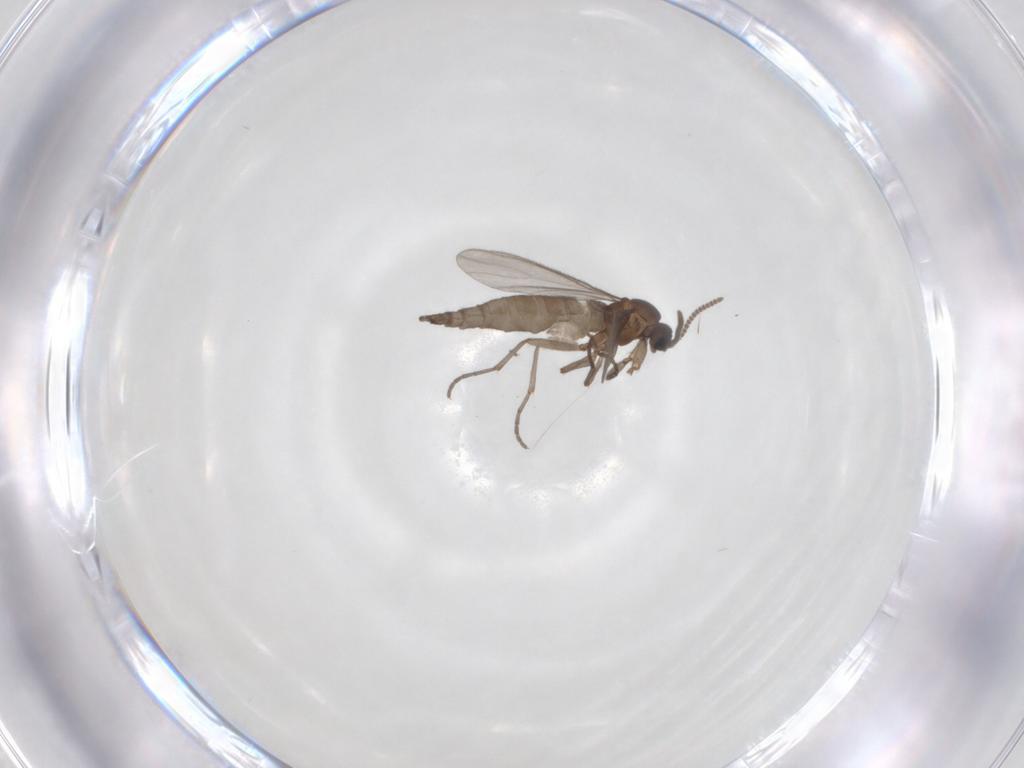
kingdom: Animalia
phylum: Arthropoda
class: Insecta
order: Diptera
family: Sciaridae
